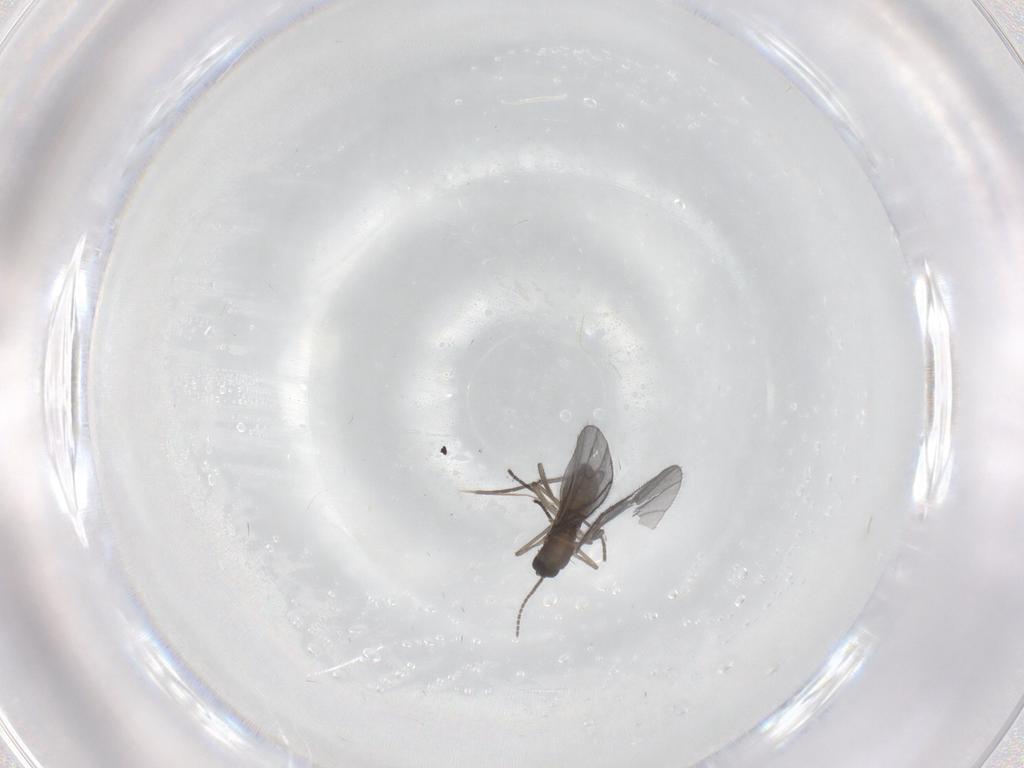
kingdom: Animalia
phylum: Arthropoda
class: Insecta
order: Diptera
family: Sciaridae
